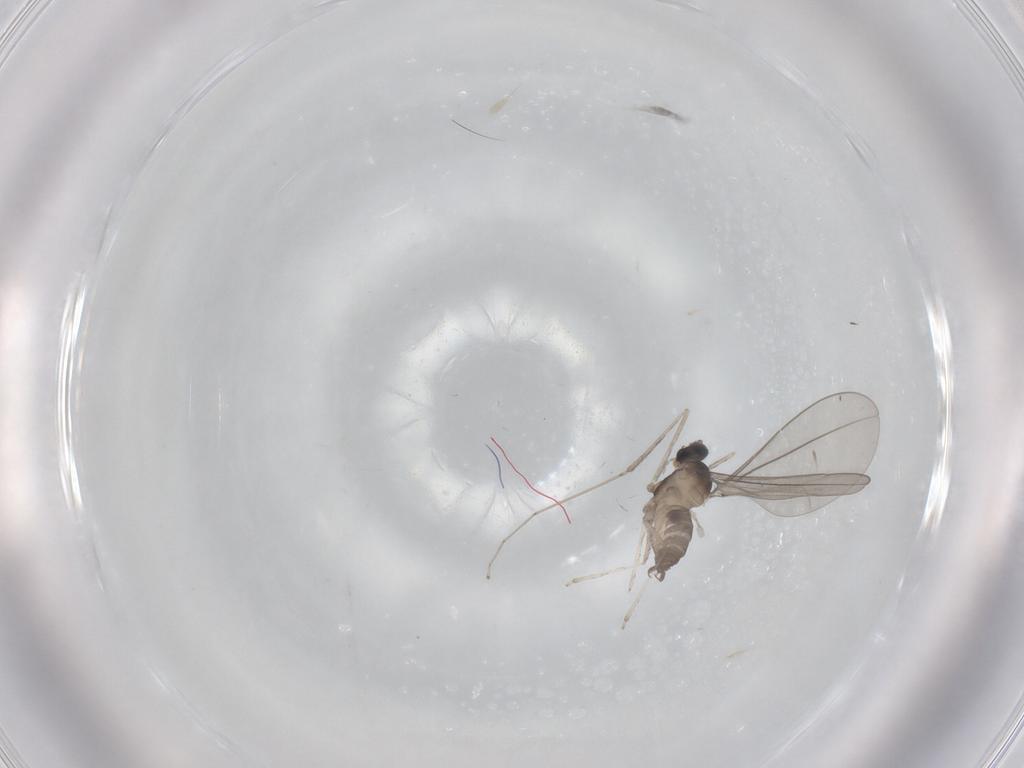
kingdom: Animalia
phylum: Arthropoda
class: Insecta
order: Diptera
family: Cecidomyiidae
